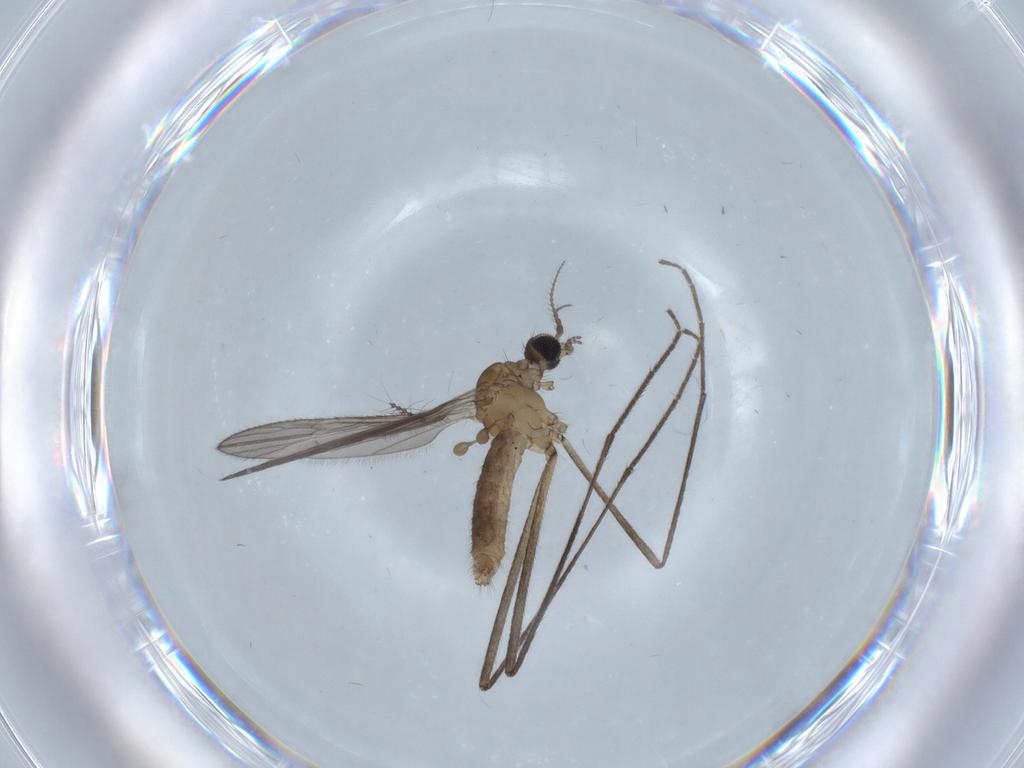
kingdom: Animalia
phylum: Arthropoda
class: Insecta
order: Diptera
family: Limoniidae
